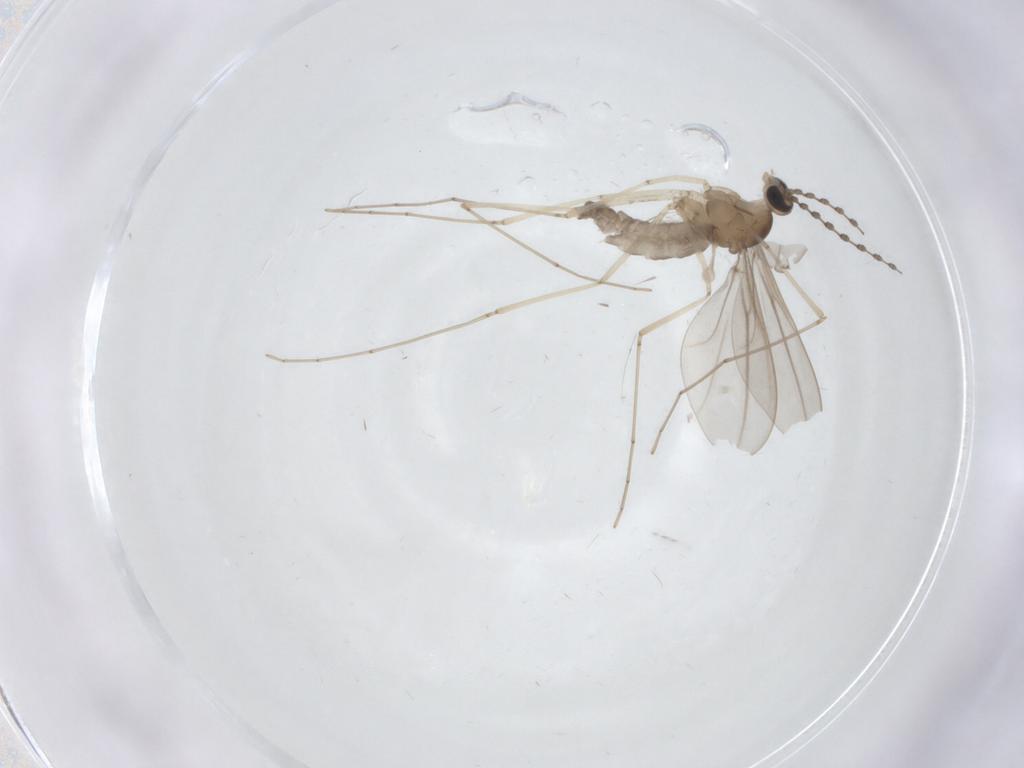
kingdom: Animalia
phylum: Arthropoda
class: Insecta
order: Diptera
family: Cecidomyiidae
